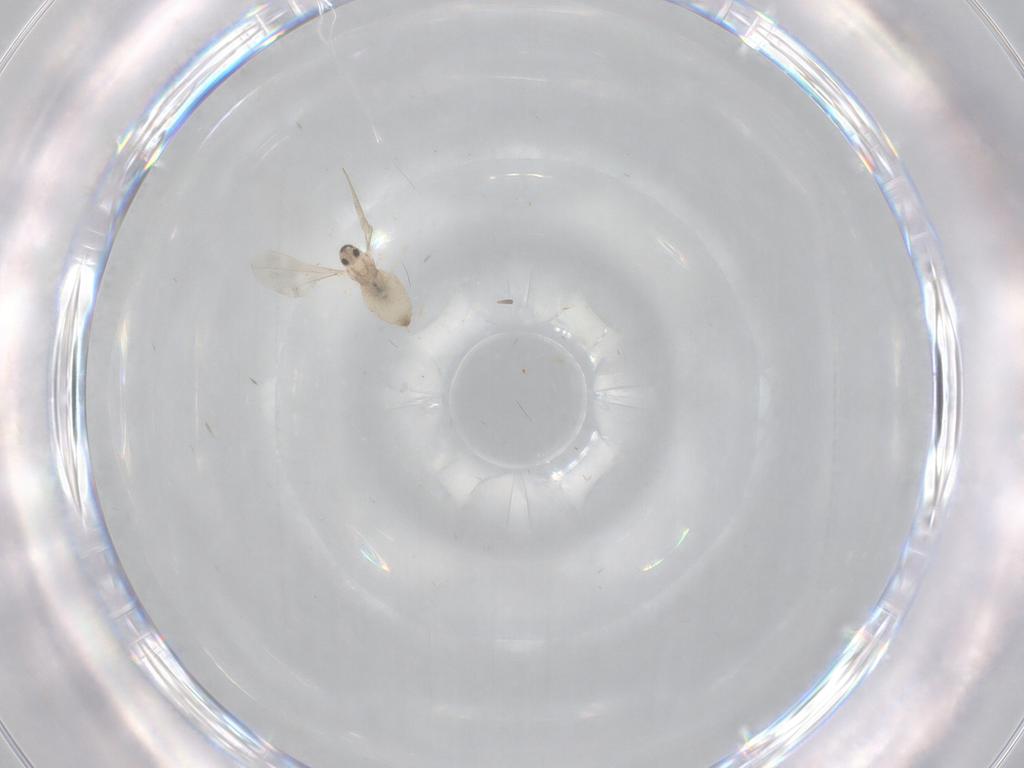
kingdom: Animalia
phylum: Arthropoda
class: Insecta
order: Diptera
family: Cecidomyiidae
